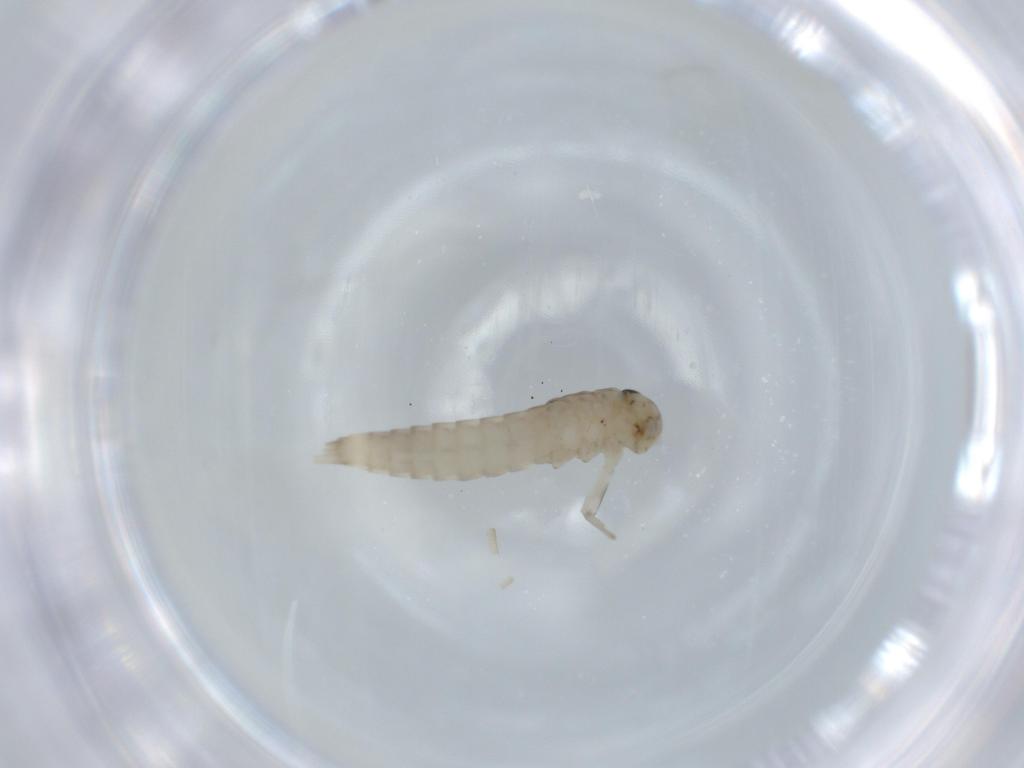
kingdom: Animalia
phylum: Arthropoda
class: Insecta
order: Ephemeroptera
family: Baetidae
